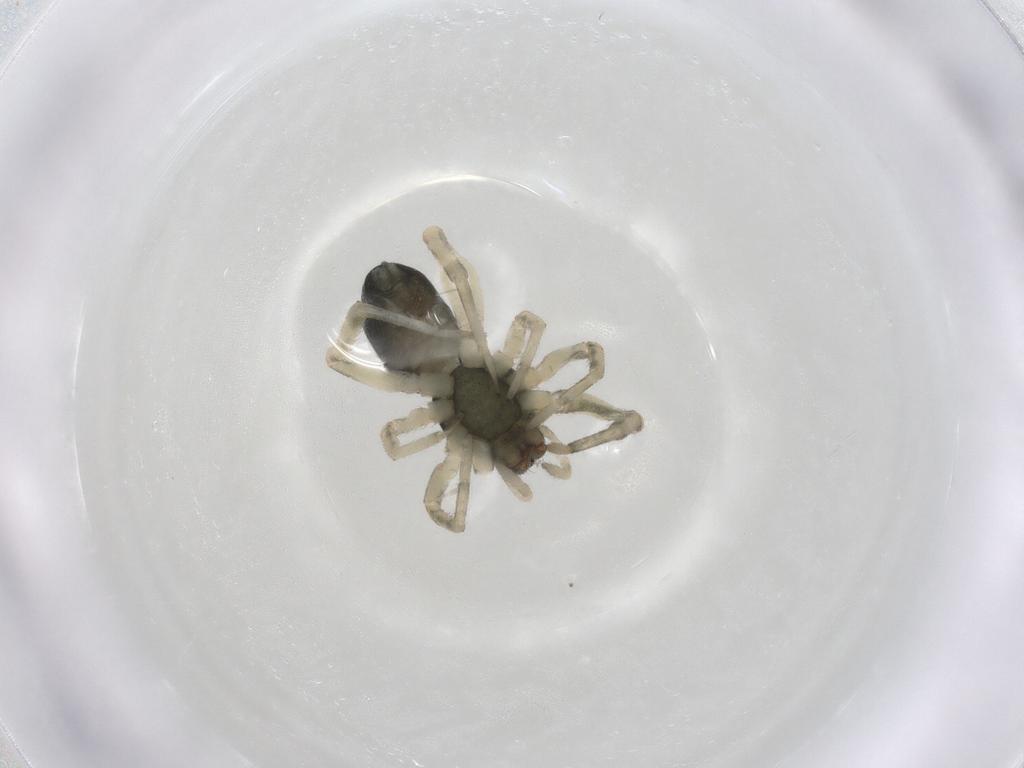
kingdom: Animalia
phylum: Arthropoda
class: Arachnida
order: Araneae
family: Trachelidae
